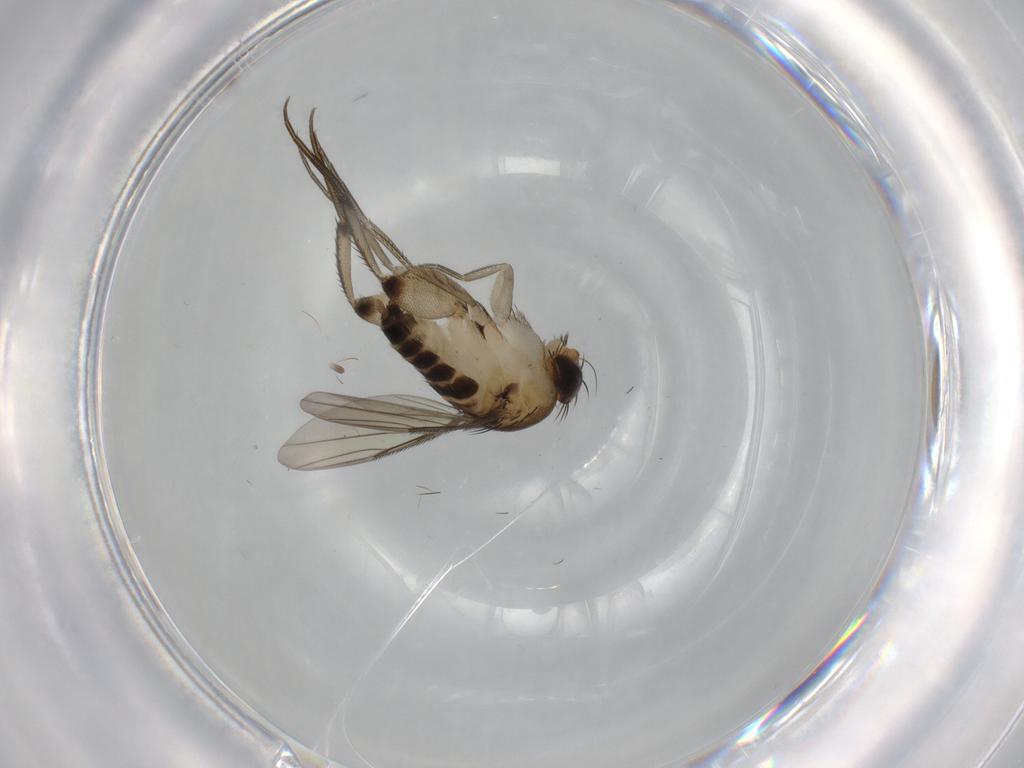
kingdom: Animalia
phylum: Arthropoda
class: Insecta
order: Diptera
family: Phoridae
